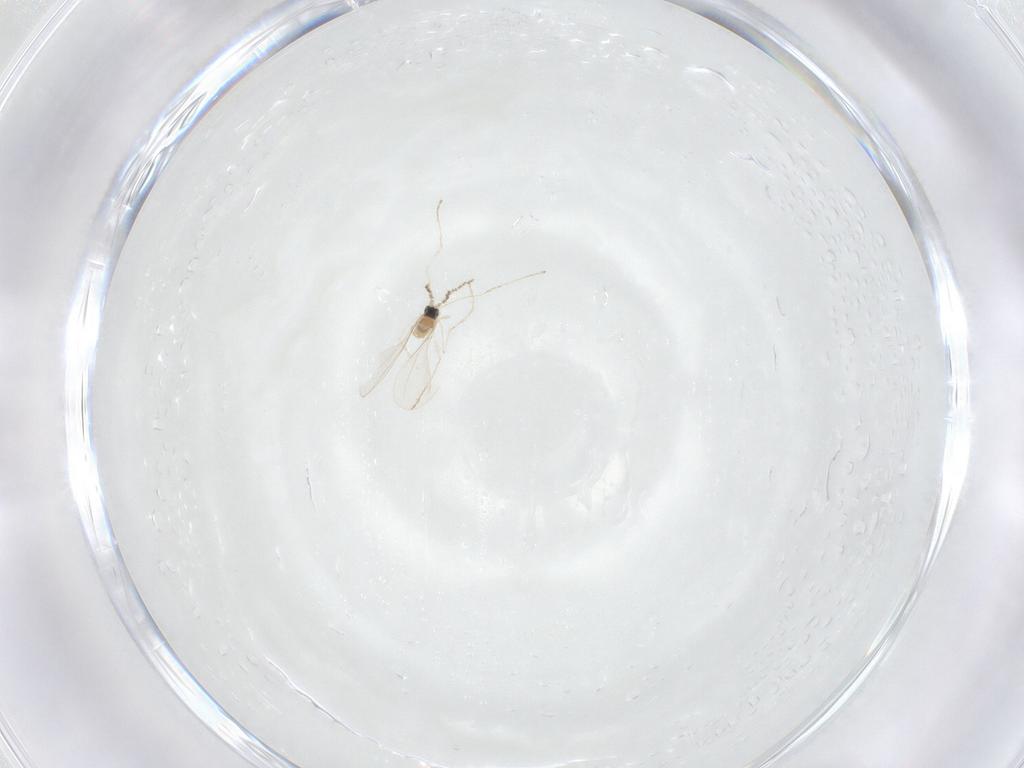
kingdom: Animalia
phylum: Arthropoda
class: Insecta
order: Diptera
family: Cecidomyiidae
